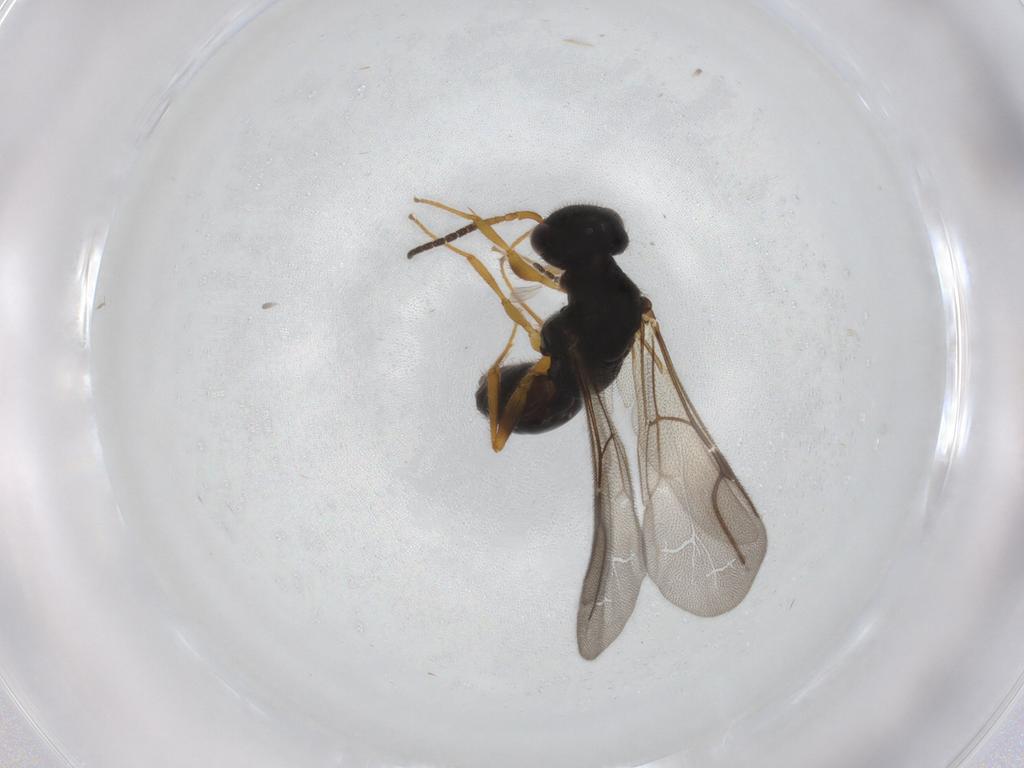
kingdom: Animalia
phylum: Arthropoda
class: Insecta
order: Hymenoptera
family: Bethylidae
